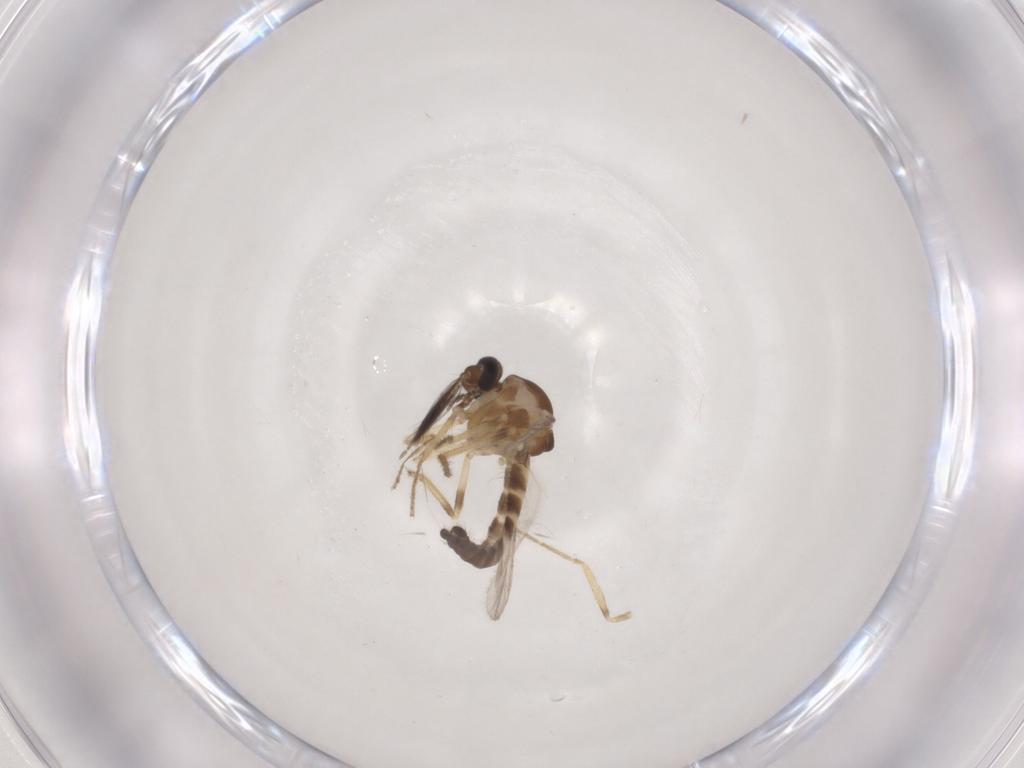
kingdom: Animalia
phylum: Arthropoda
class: Insecta
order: Diptera
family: Ceratopogonidae
